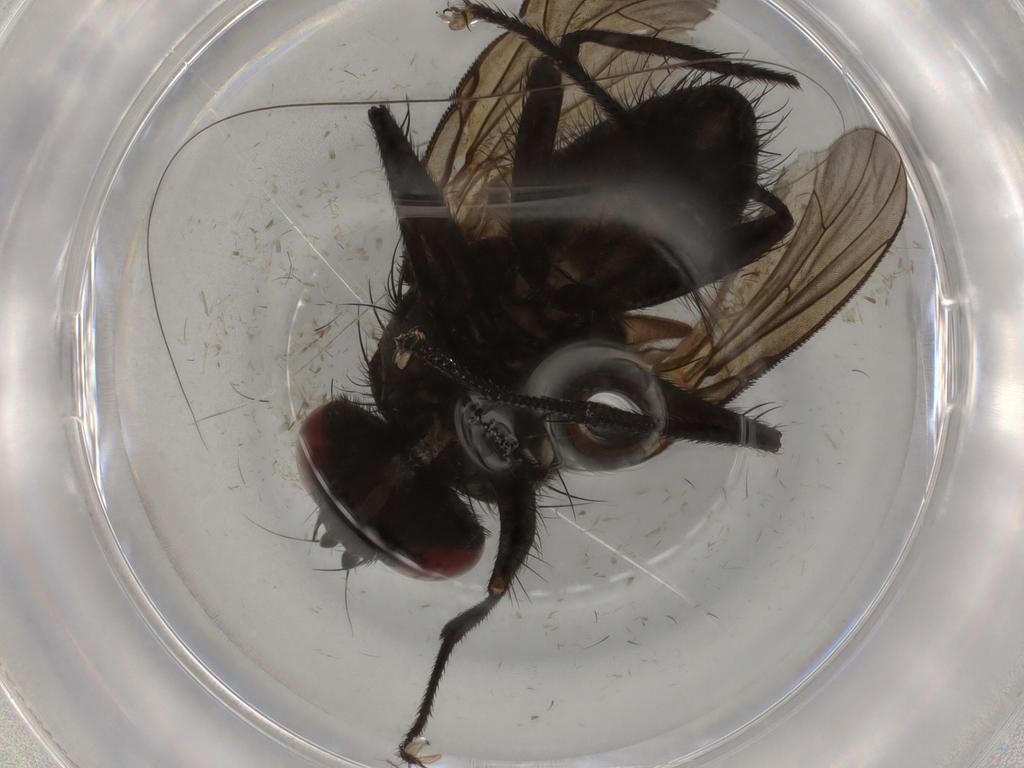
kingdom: Animalia
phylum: Arthropoda
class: Insecta
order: Diptera
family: Muscidae
